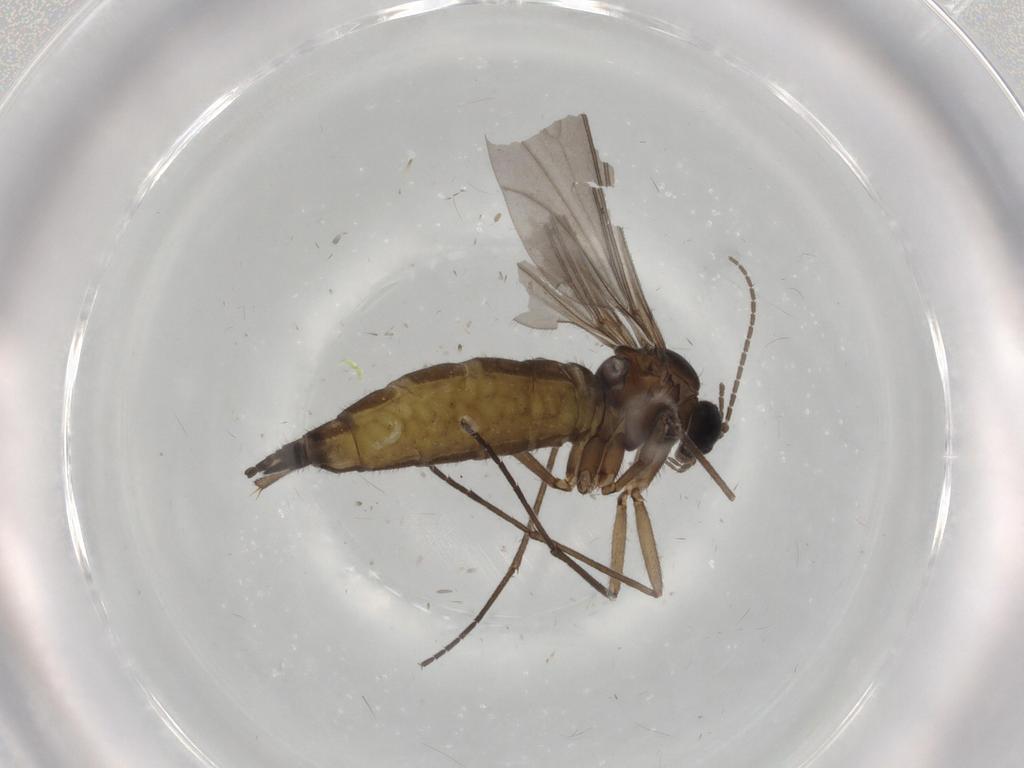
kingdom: Animalia
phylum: Arthropoda
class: Insecta
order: Diptera
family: Sciaridae
